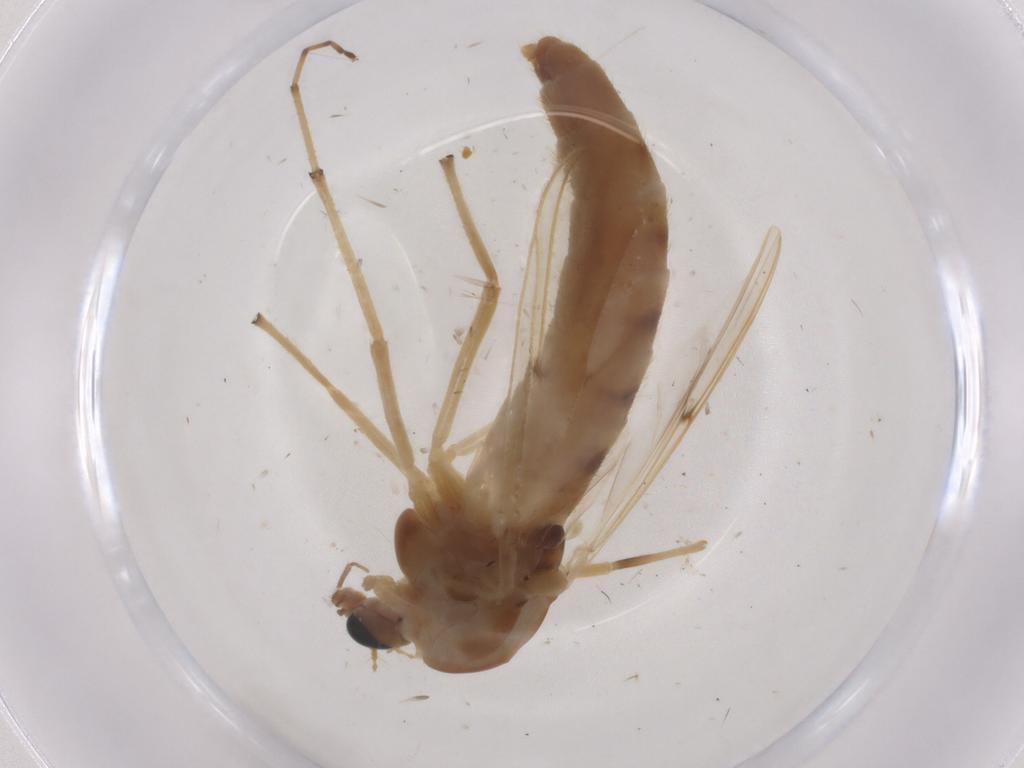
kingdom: Animalia
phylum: Arthropoda
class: Insecta
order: Diptera
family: Chironomidae
